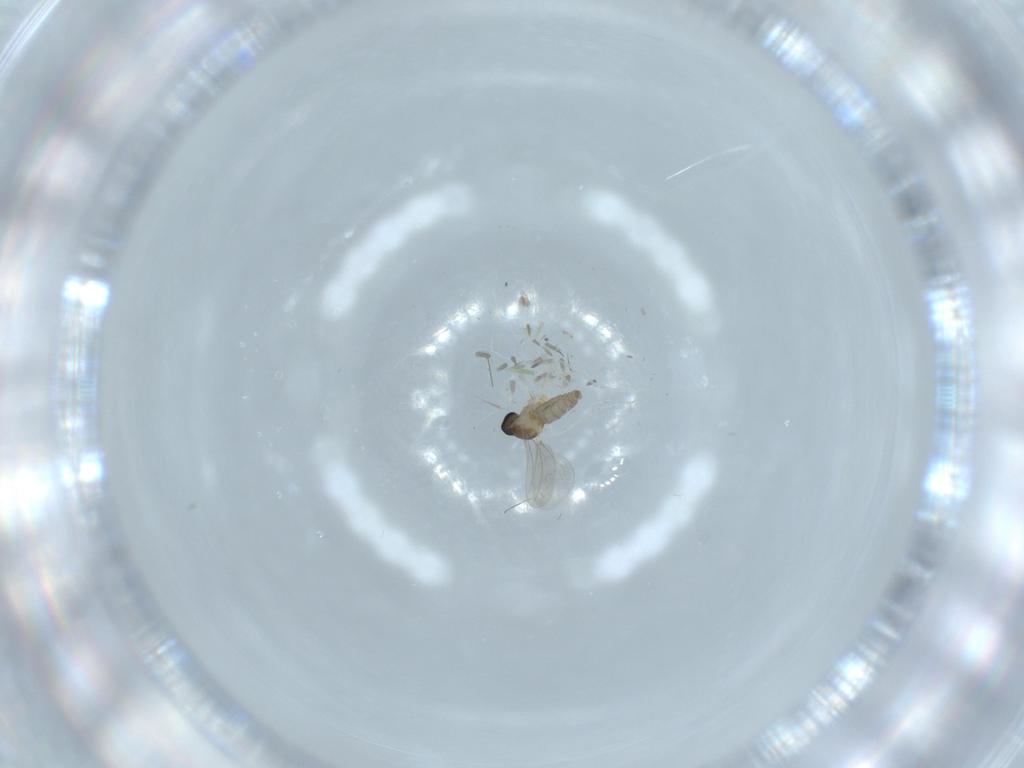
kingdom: Animalia
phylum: Arthropoda
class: Insecta
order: Diptera
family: Cecidomyiidae
